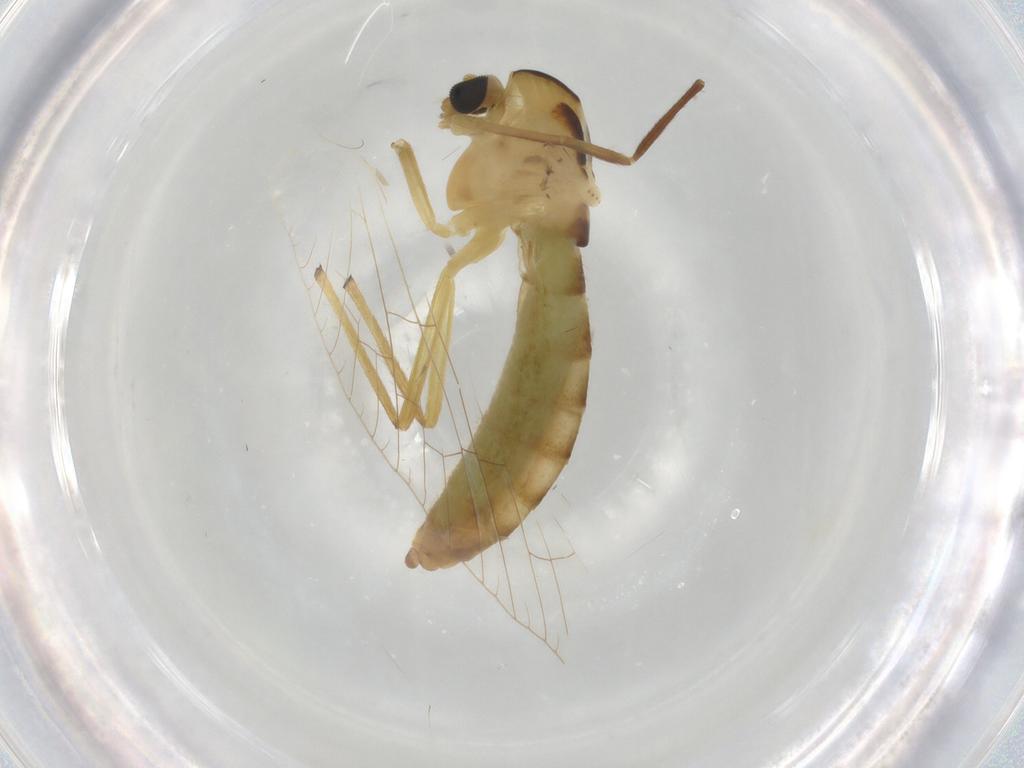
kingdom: Animalia
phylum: Arthropoda
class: Insecta
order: Diptera
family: Chironomidae
